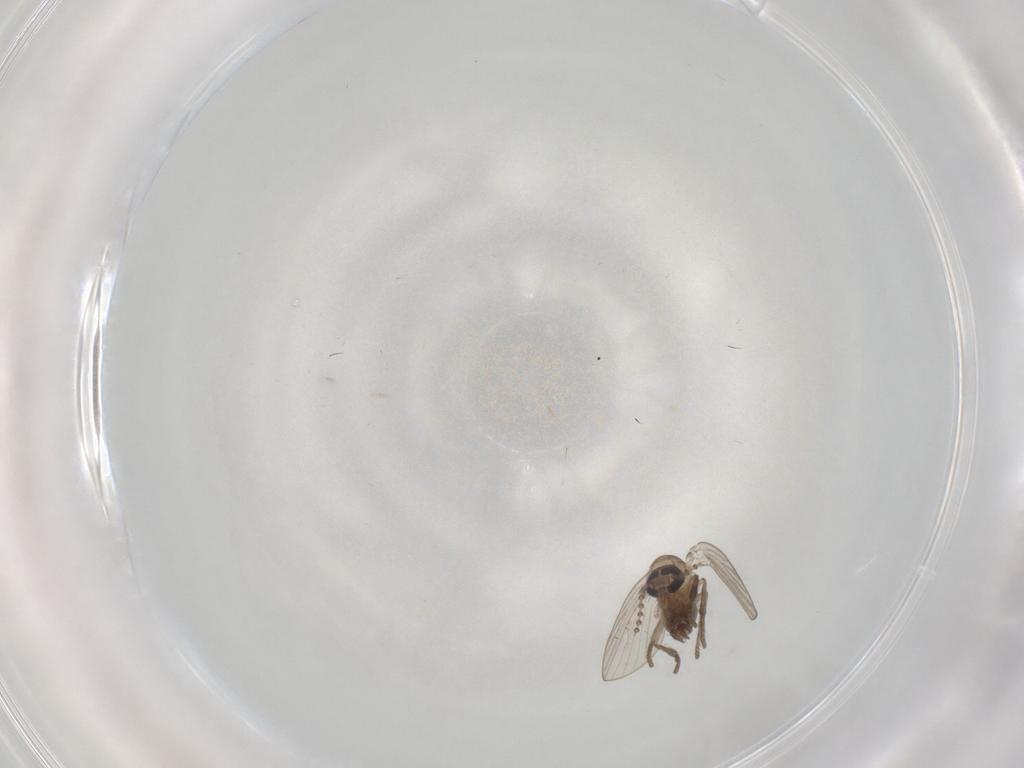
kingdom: Animalia
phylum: Arthropoda
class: Insecta
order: Diptera
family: Psychodidae
